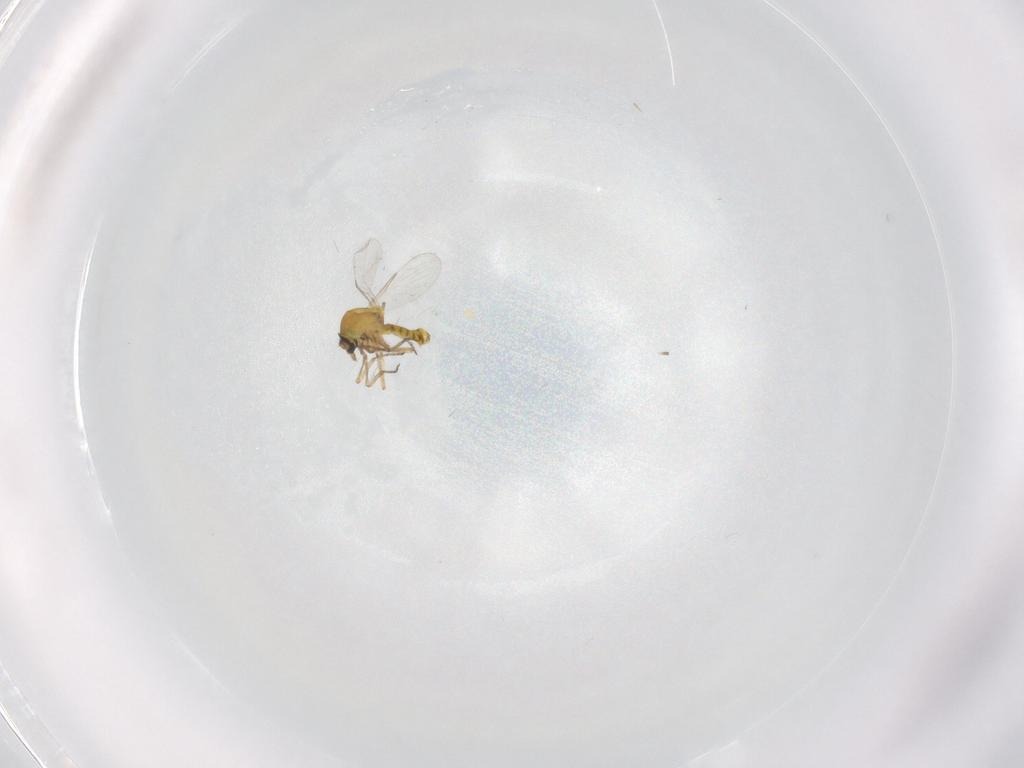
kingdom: Animalia
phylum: Arthropoda
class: Insecta
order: Diptera
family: Ceratopogonidae
